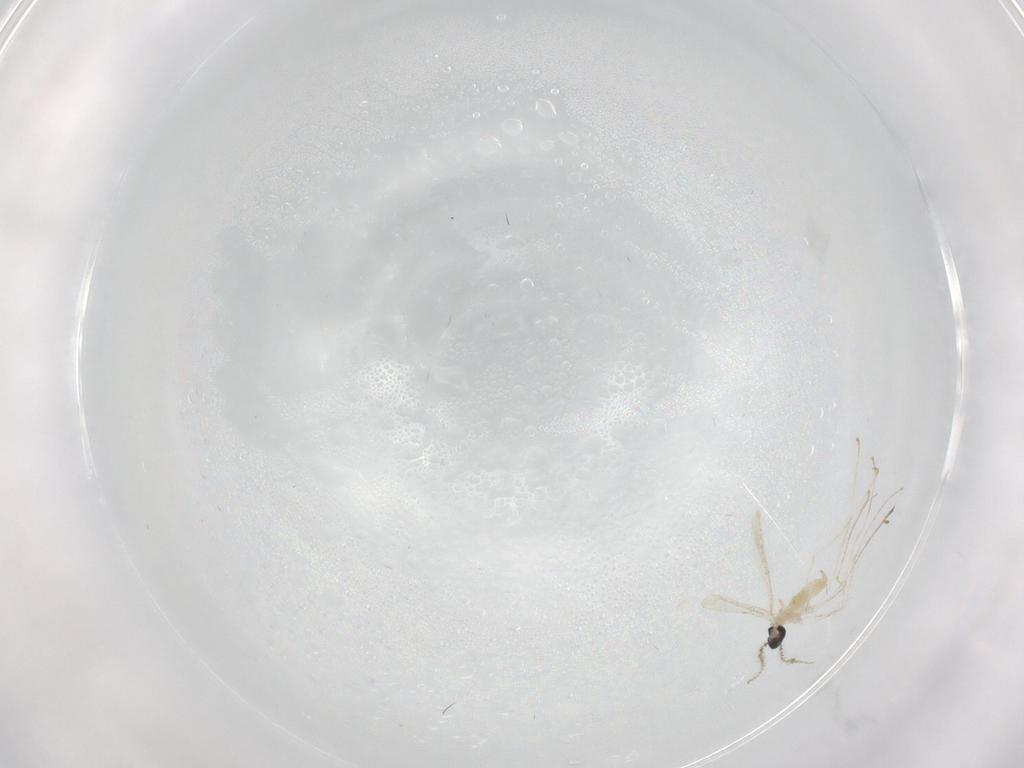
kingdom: Animalia
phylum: Arthropoda
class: Insecta
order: Diptera
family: Cecidomyiidae
